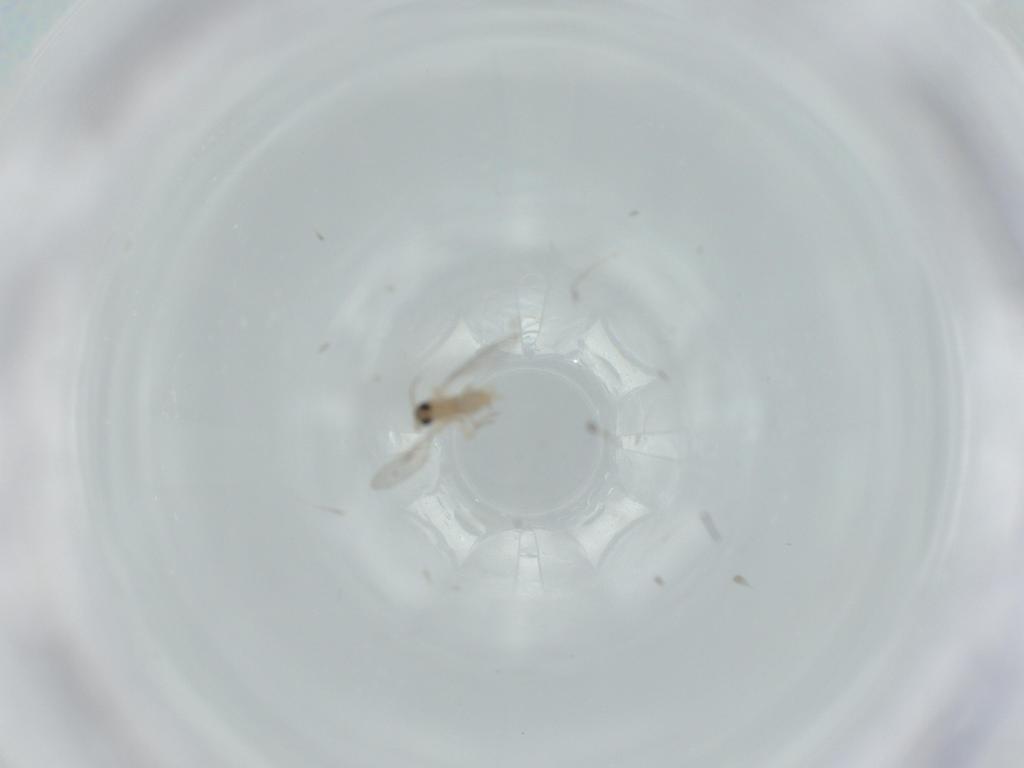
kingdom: Animalia
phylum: Arthropoda
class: Insecta
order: Diptera
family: Cecidomyiidae
